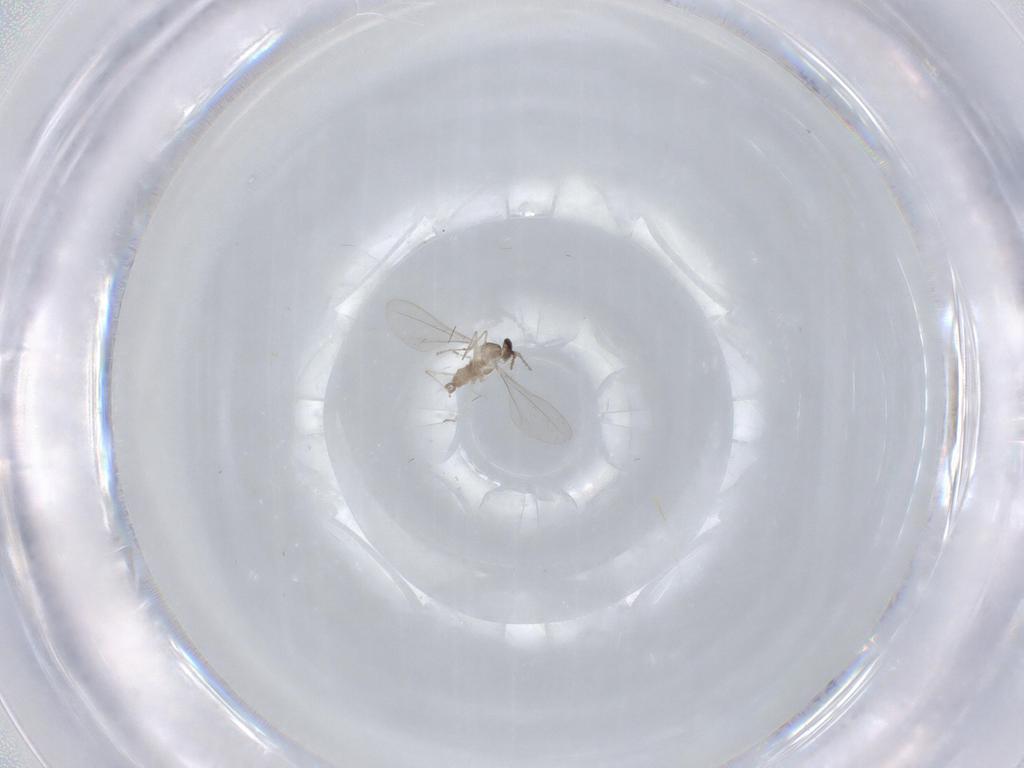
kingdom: Animalia
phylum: Arthropoda
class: Insecta
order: Diptera
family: Cecidomyiidae
